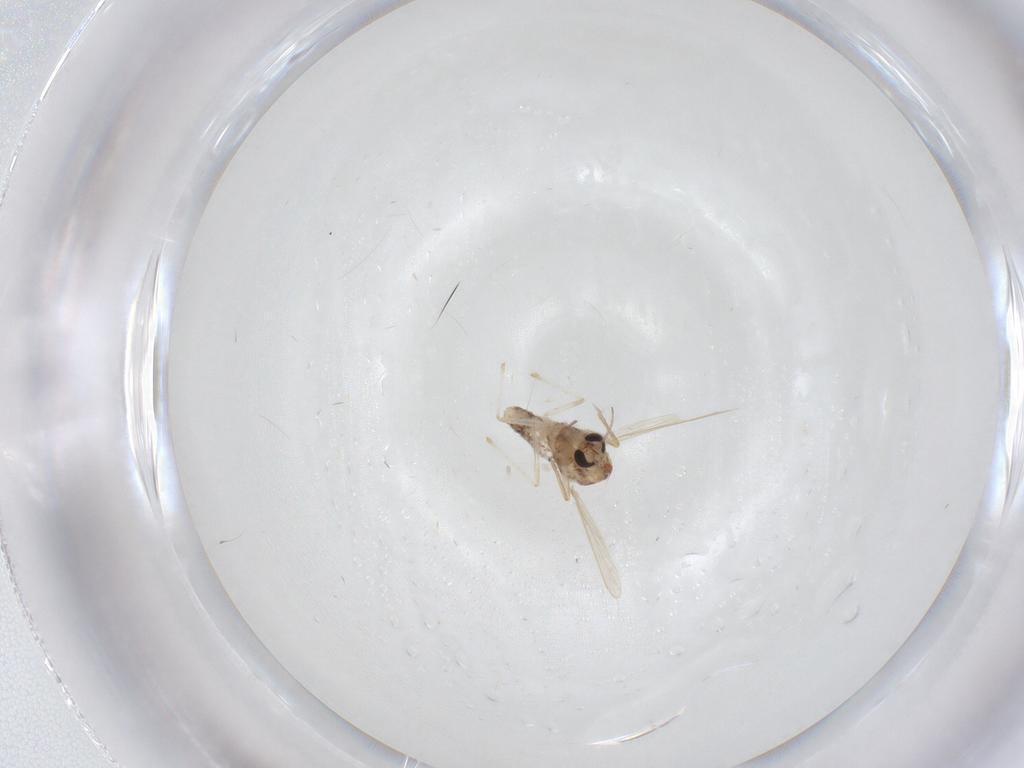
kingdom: Animalia
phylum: Arthropoda
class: Insecta
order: Diptera
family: Chironomidae
